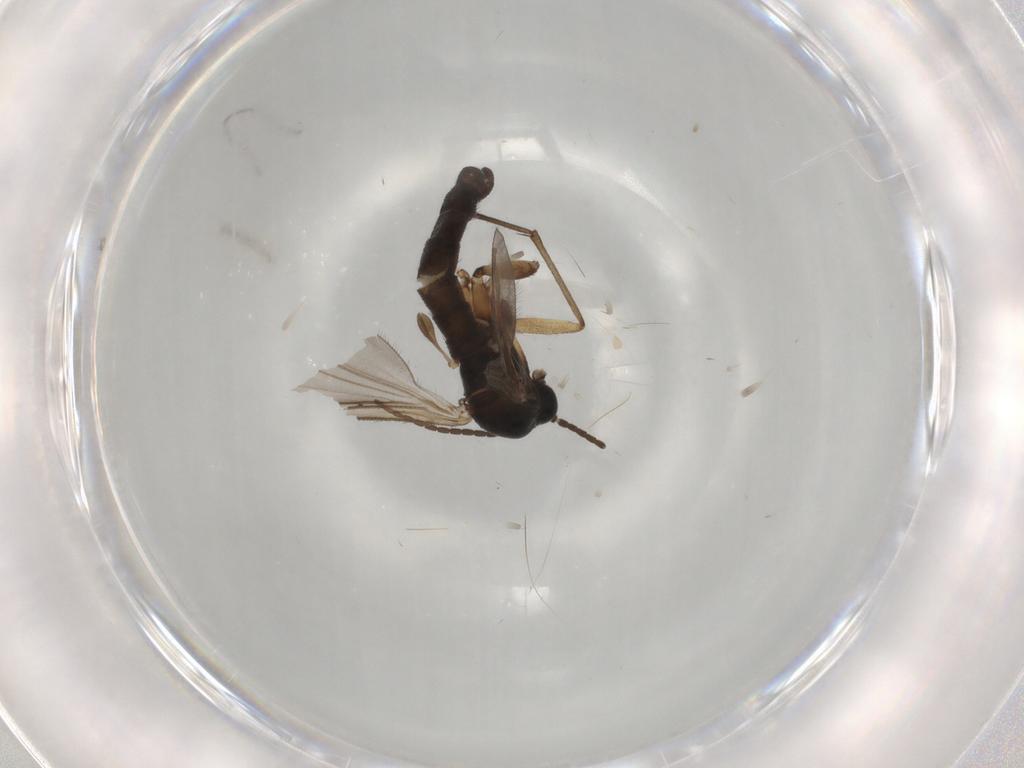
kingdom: Animalia
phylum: Arthropoda
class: Insecta
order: Diptera
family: Sciaridae
